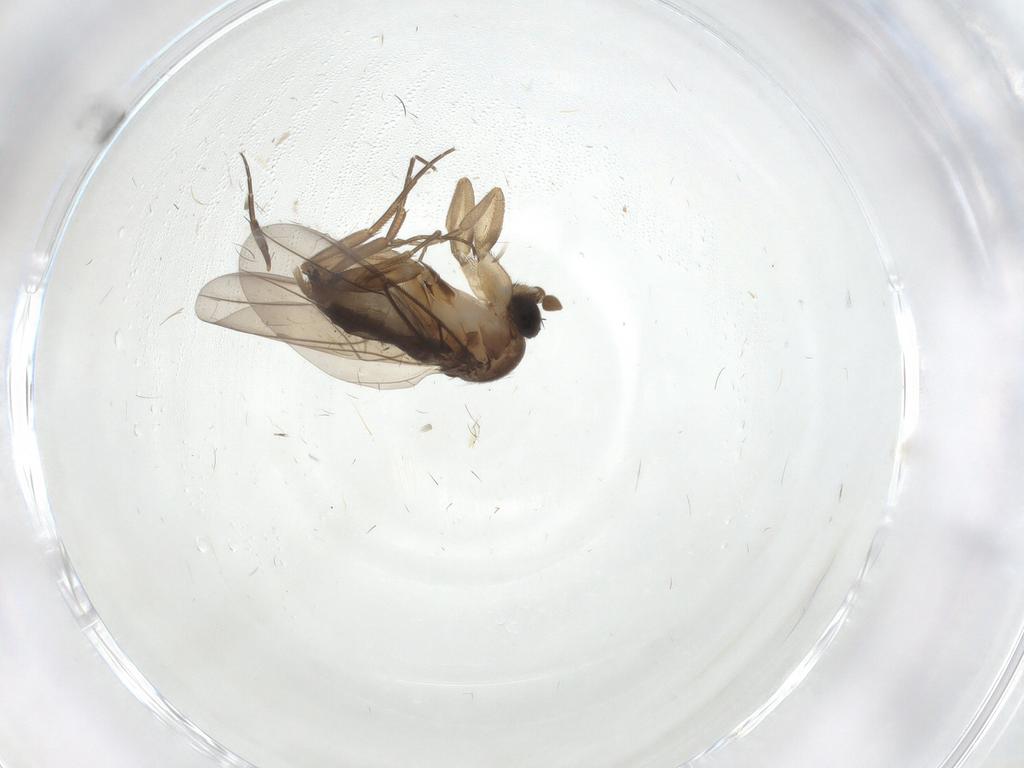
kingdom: Animalia
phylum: Arthropoda
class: Insecta
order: Diptera
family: Phoridae
